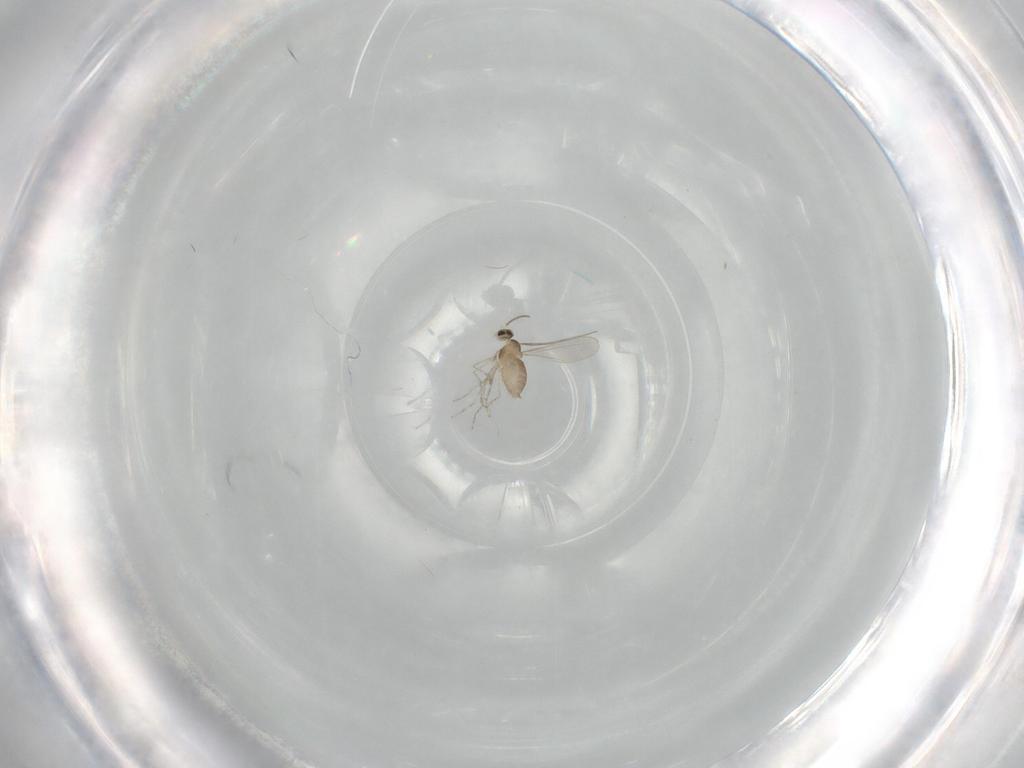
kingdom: Animalia
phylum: Arthropoda
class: Insecta
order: Diptera
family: Cecidomyiidae
